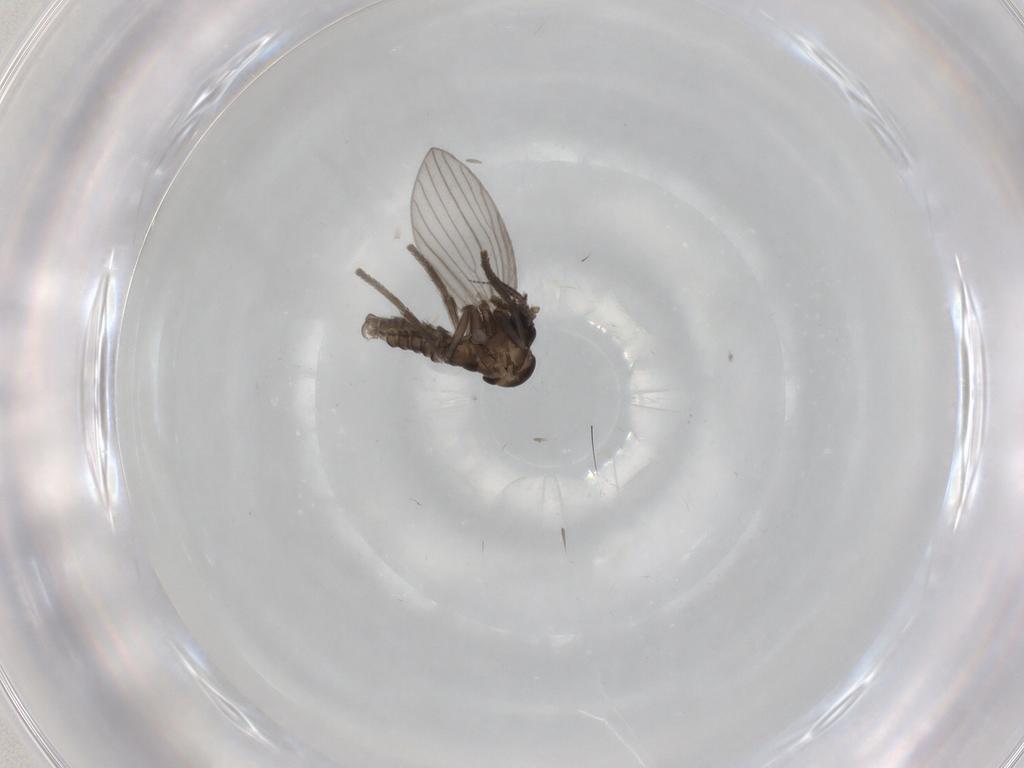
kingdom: Animalia
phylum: Arthropoda
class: Insecta
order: Diptera
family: Psychodidae
